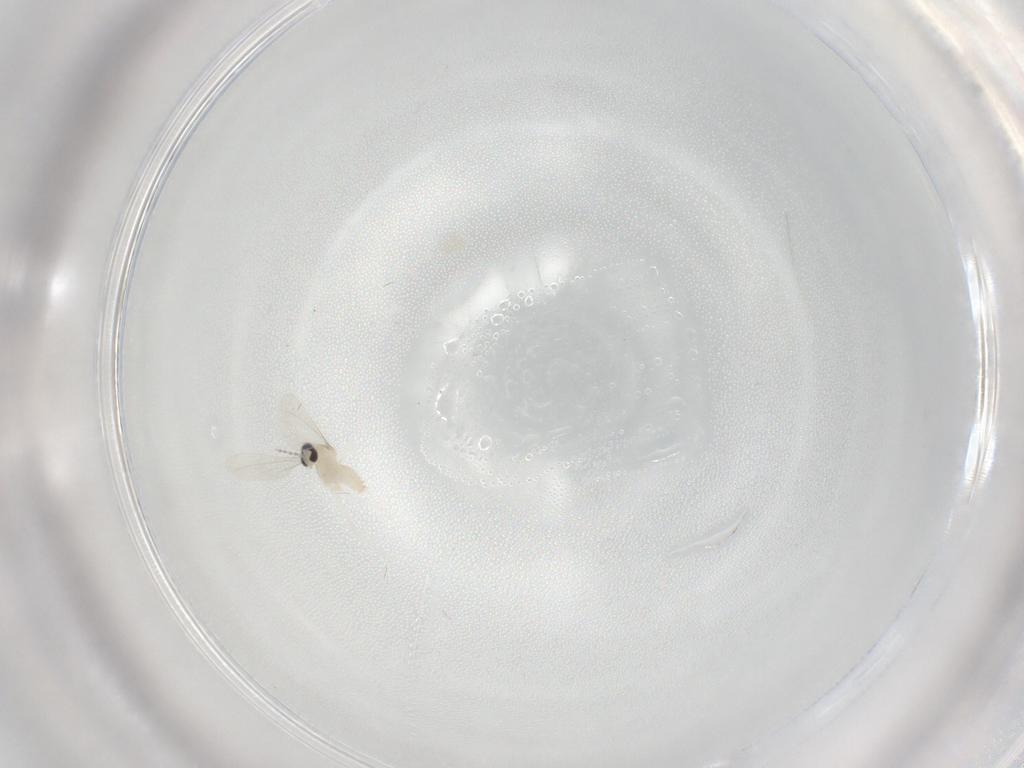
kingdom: Animalia
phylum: Arthropoda
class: Insecta
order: Diptera
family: Cecidomyiidae
